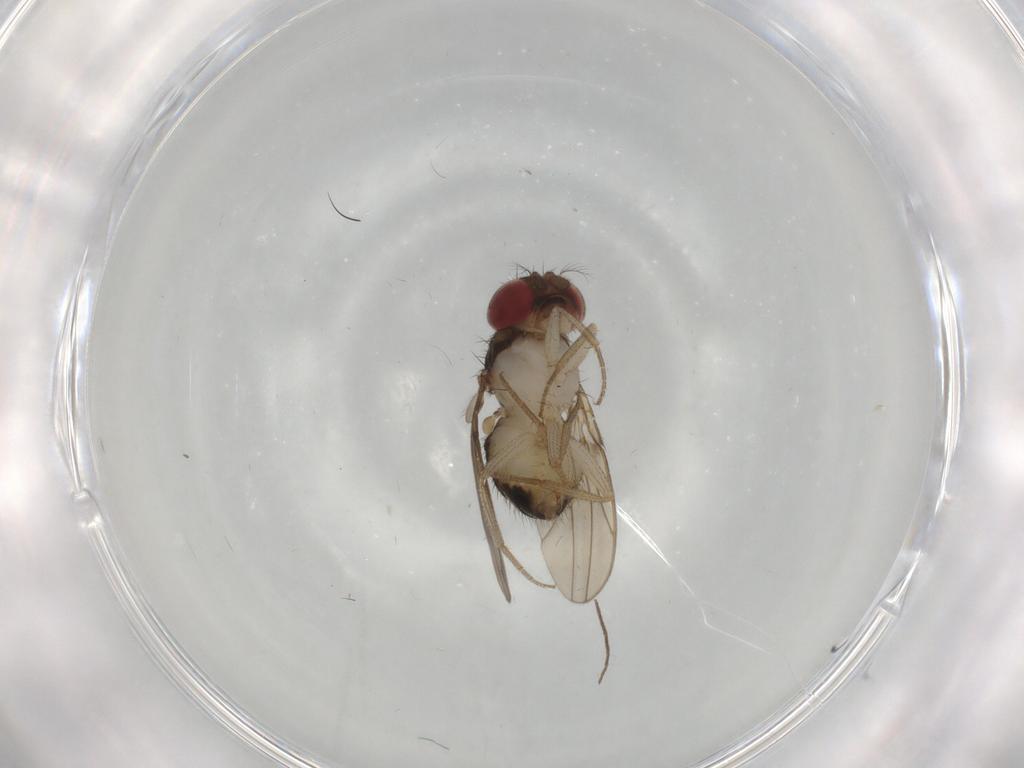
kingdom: Animalia
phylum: Arthropoda
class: Insecta
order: Diptera
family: Drosophilidae
